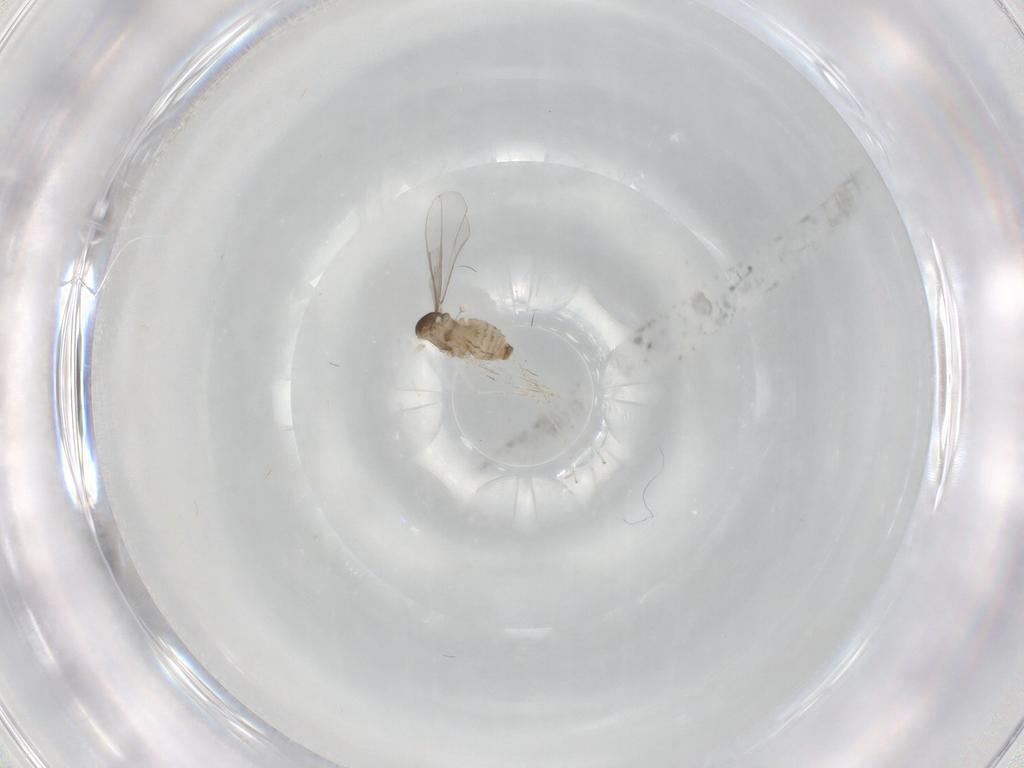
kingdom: Animalia
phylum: Arthropoda
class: Insecta
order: Diptera
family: Cecidomyiidae
